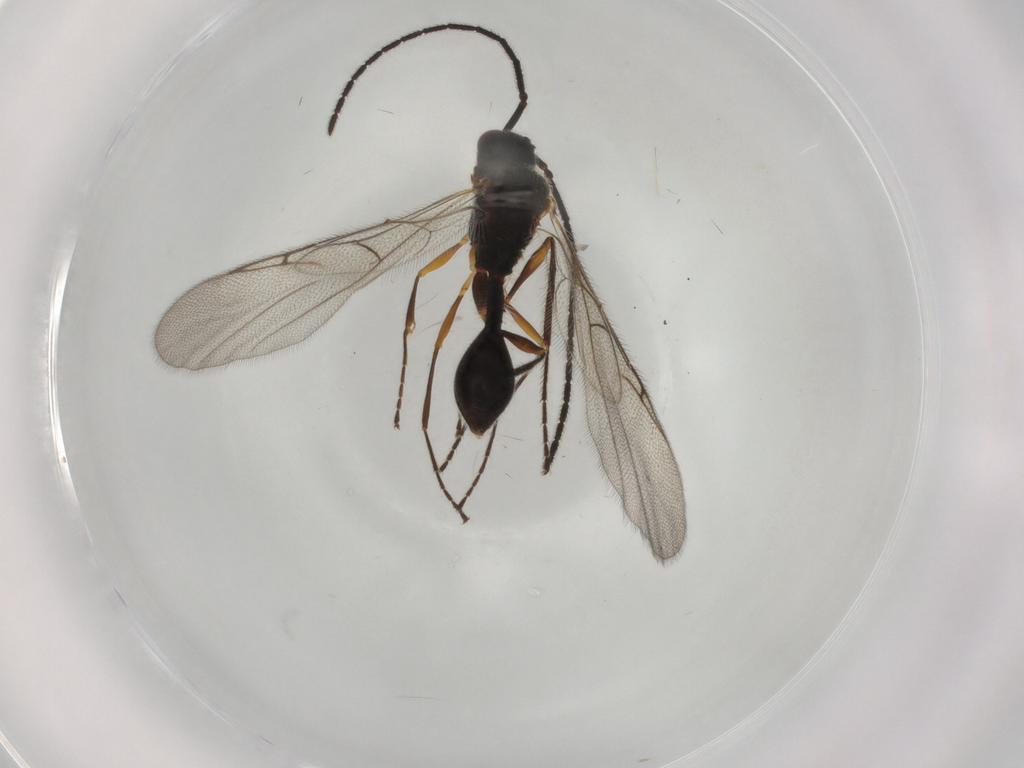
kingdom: Animalia
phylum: Arthropoda
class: Insecta
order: Hymenoptera
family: Diapriidae
